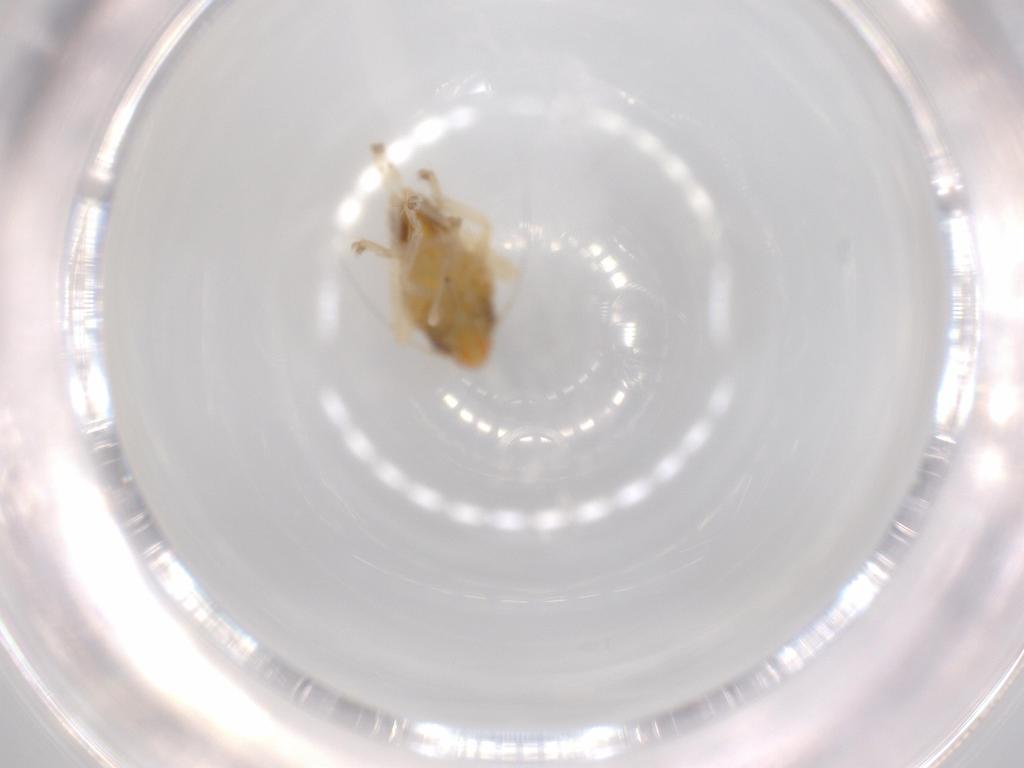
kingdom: Animalia
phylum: Arthropoda
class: Insecta
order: Hemiptera
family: Cicadellidae
